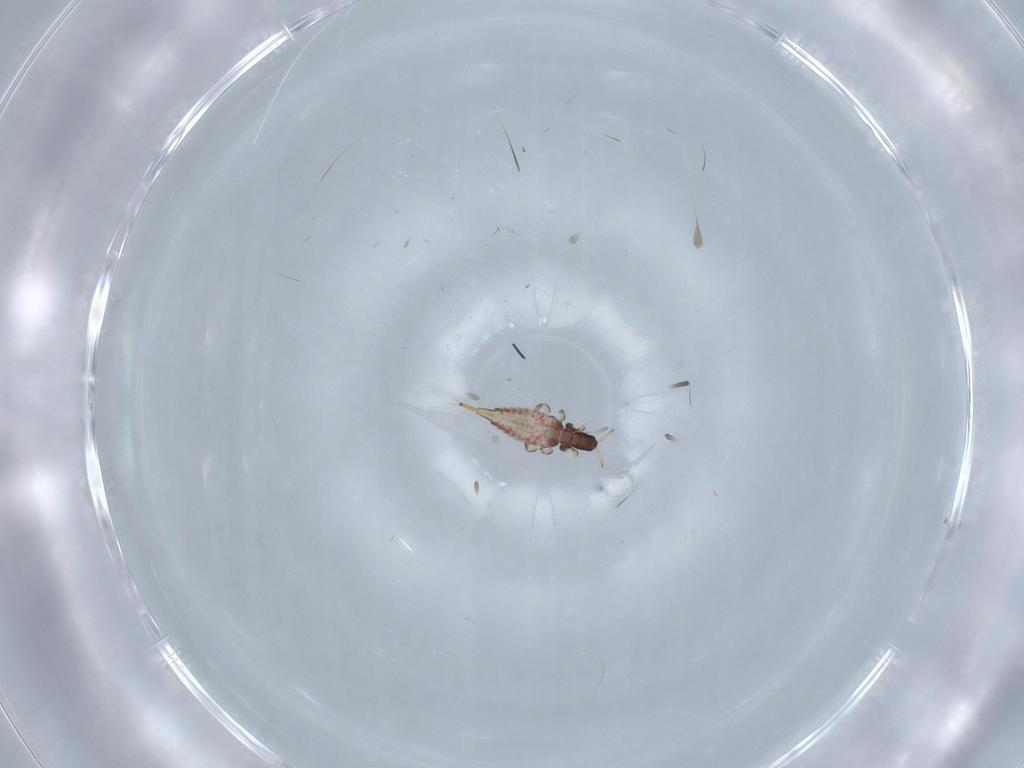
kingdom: Animalia
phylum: Arthropoda
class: Insecta
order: Thysanoptera
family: Phlaeothripidae
